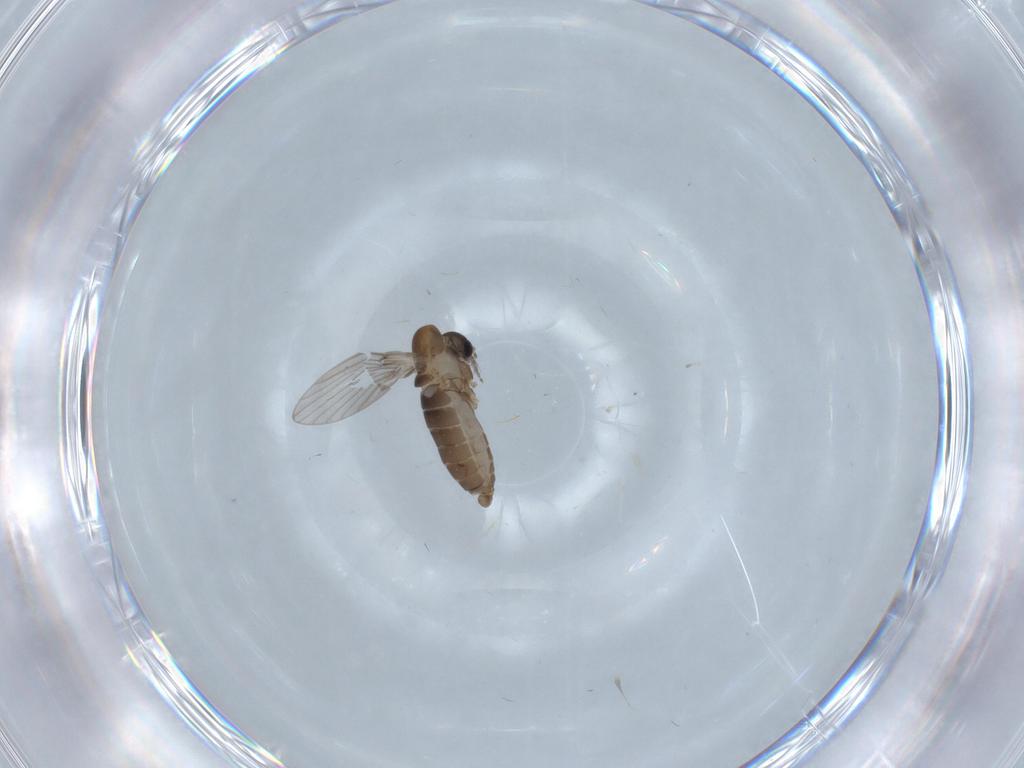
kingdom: Animalia
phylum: Arthropoda
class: Insecta
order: Diptera
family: Psychodidae
